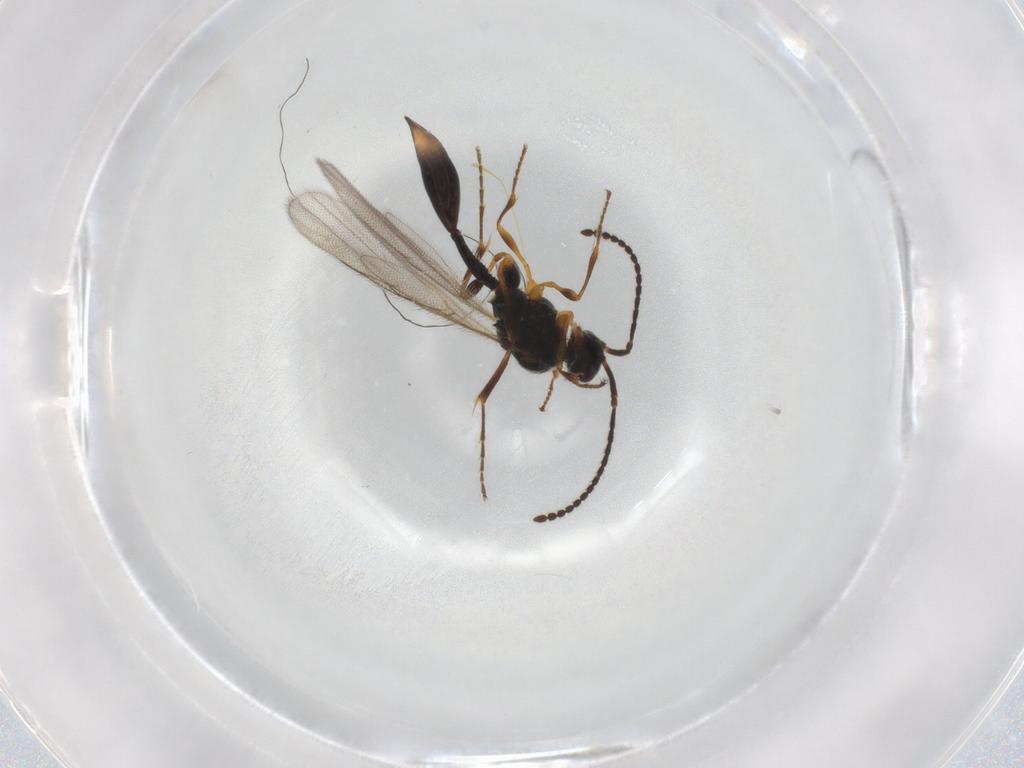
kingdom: Animalia
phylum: Arthropoda
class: Insecta
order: Hymenoptera
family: Diapriidae
